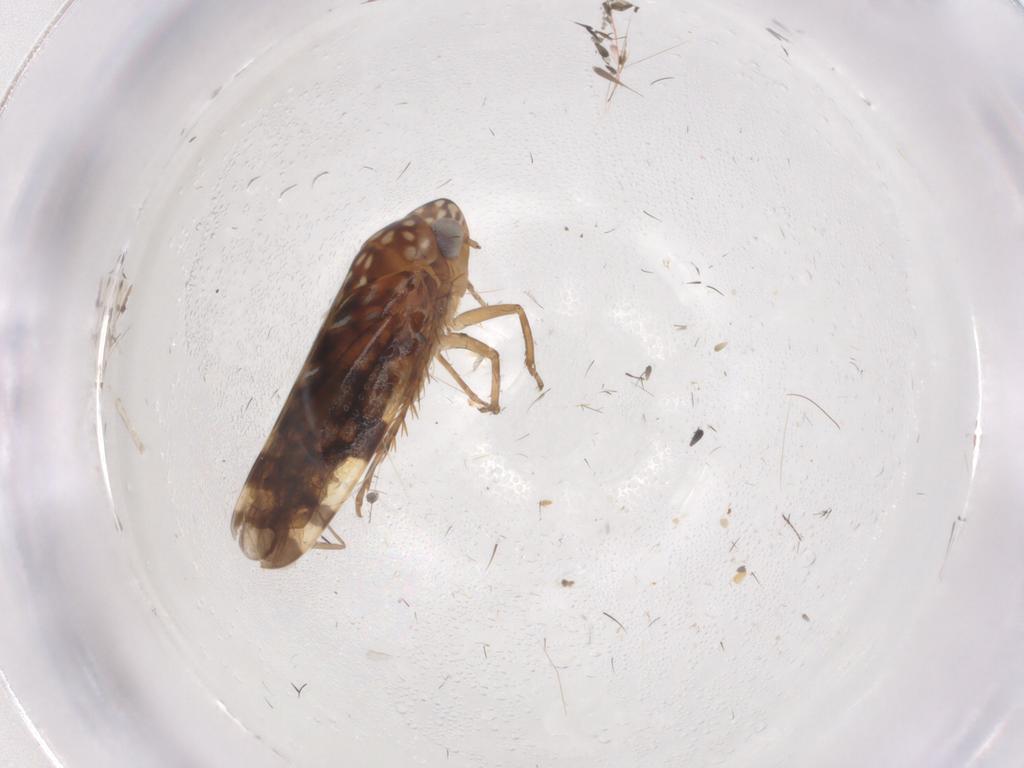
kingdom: Animalia
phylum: Arthropoda
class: Insecta
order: Hemiptera
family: Cicadellidae
